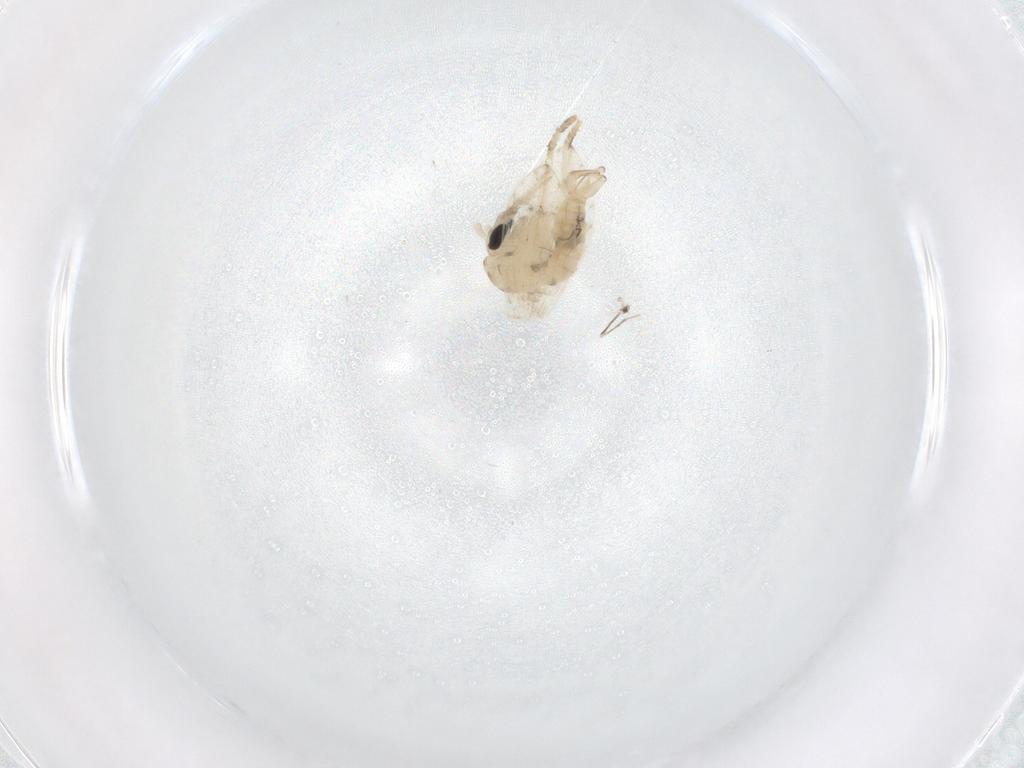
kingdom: Animalia
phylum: Arthropoda
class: Insecta
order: Diptera
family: Psychodidae
